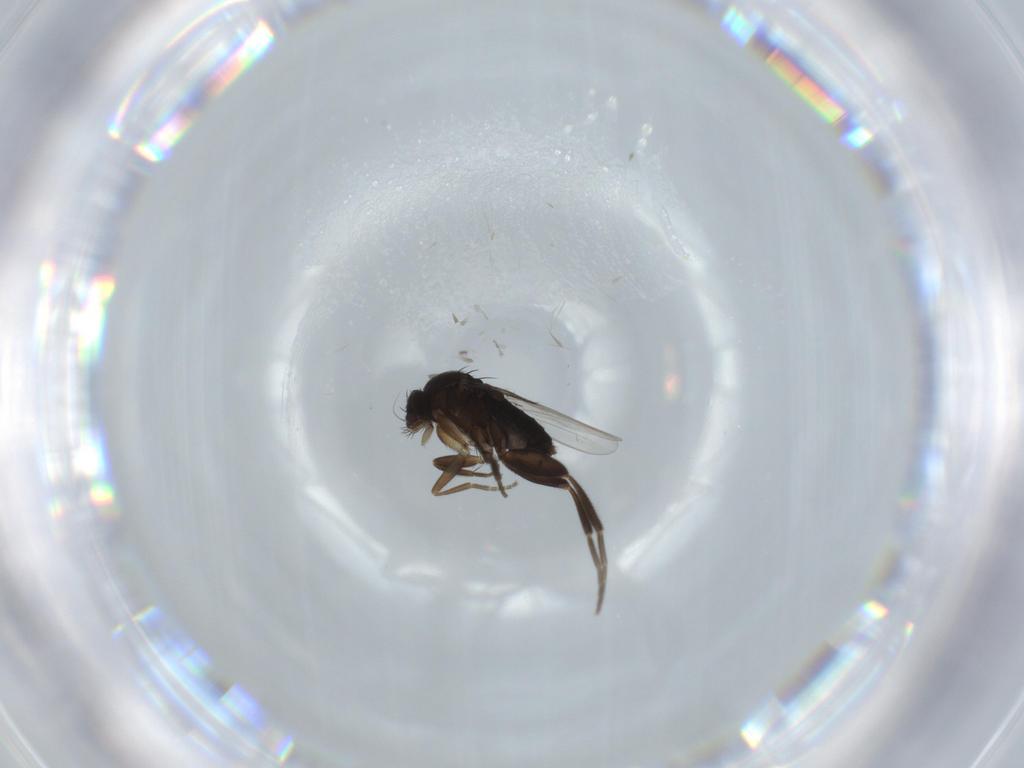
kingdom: Animalia
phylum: Arthropoda
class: Insecta
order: Diptera
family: Phoridae
